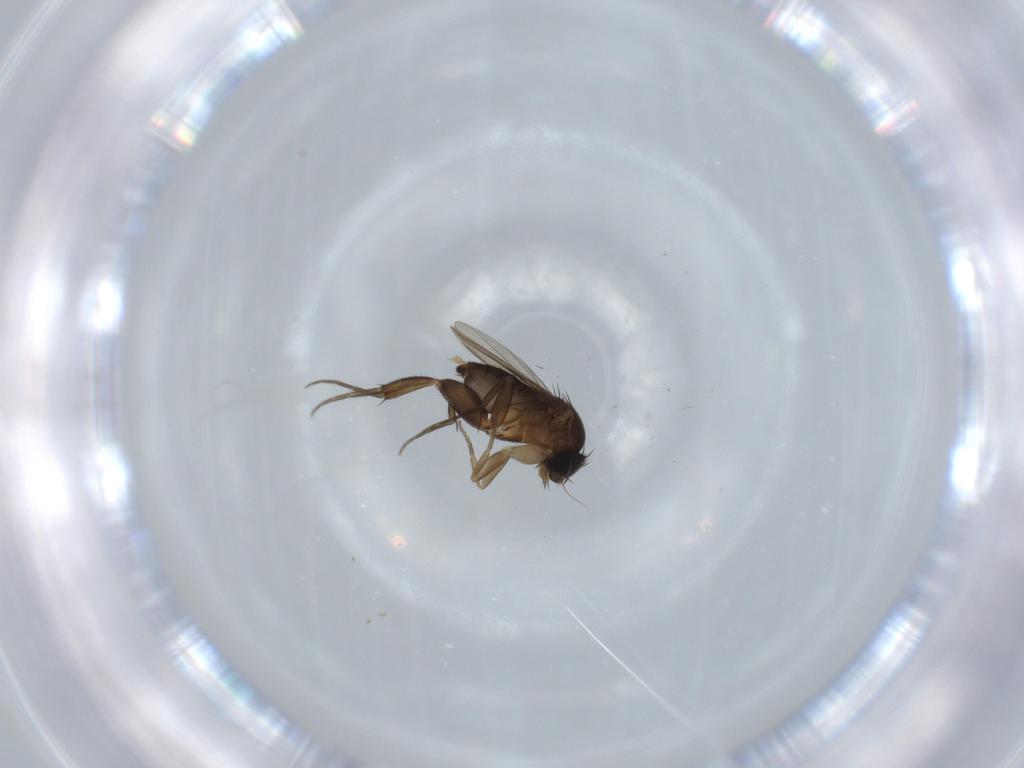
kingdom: Animalia
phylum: Arthropoda
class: Insecta
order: Diptera
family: Phoridae
